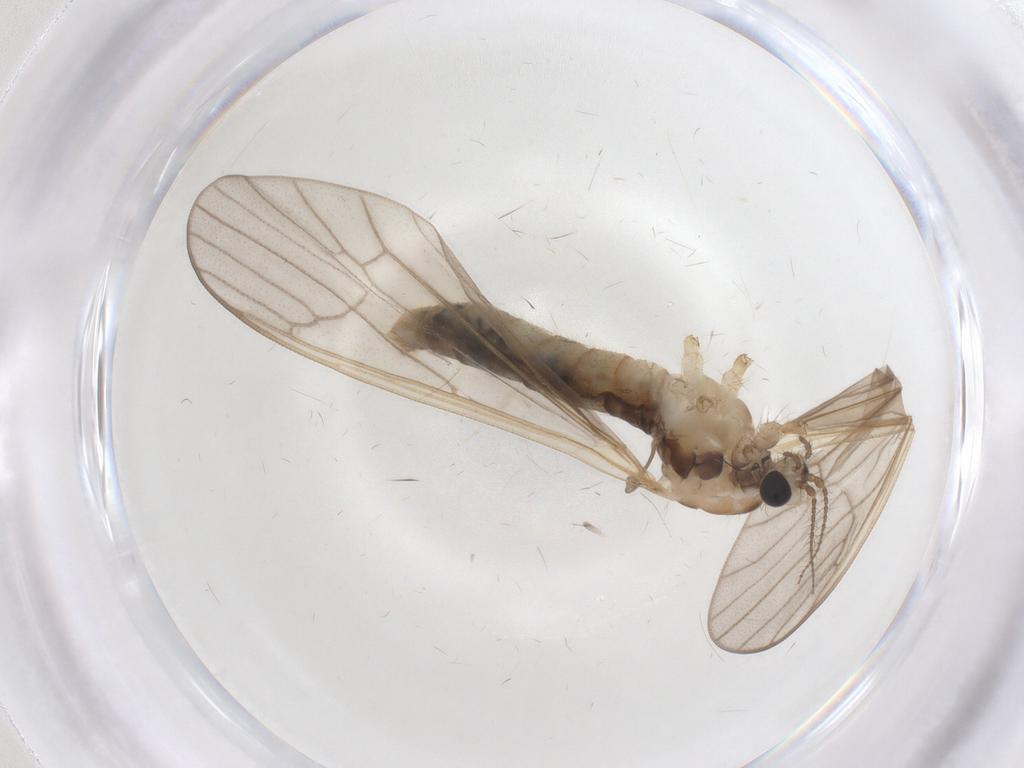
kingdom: Animalia
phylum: Arthropoda
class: Insecta
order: Diptera
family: Limoniidae
